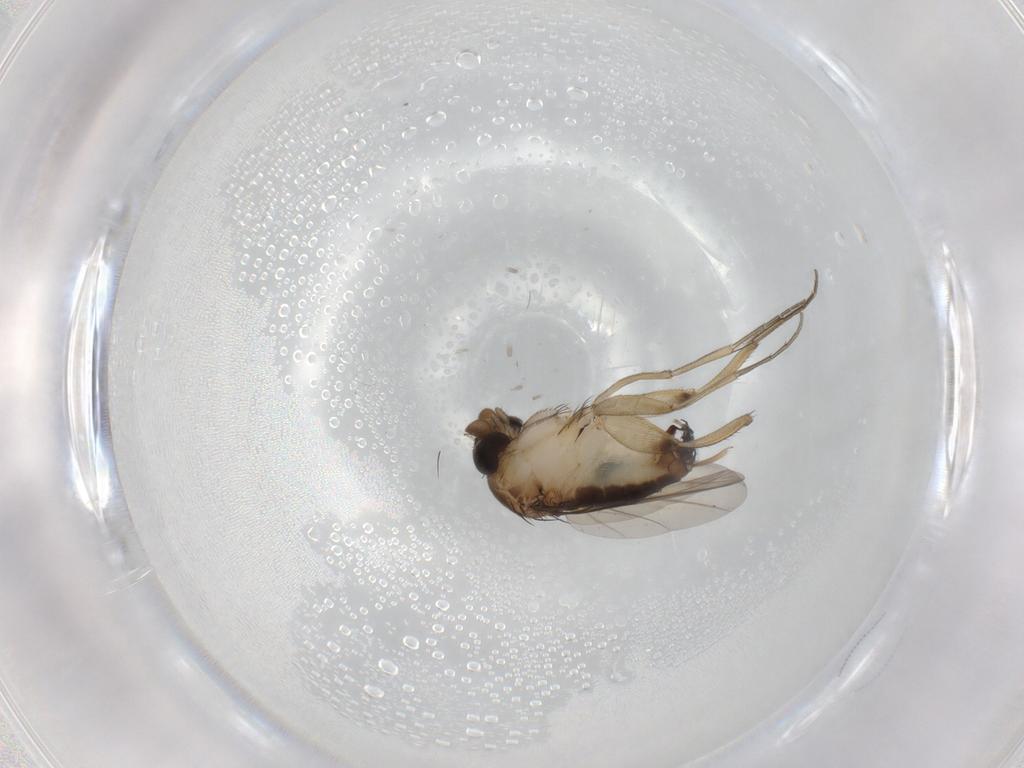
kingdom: Animalia
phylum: Arthropoda
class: Insecta
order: Diptera
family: Phoridae
